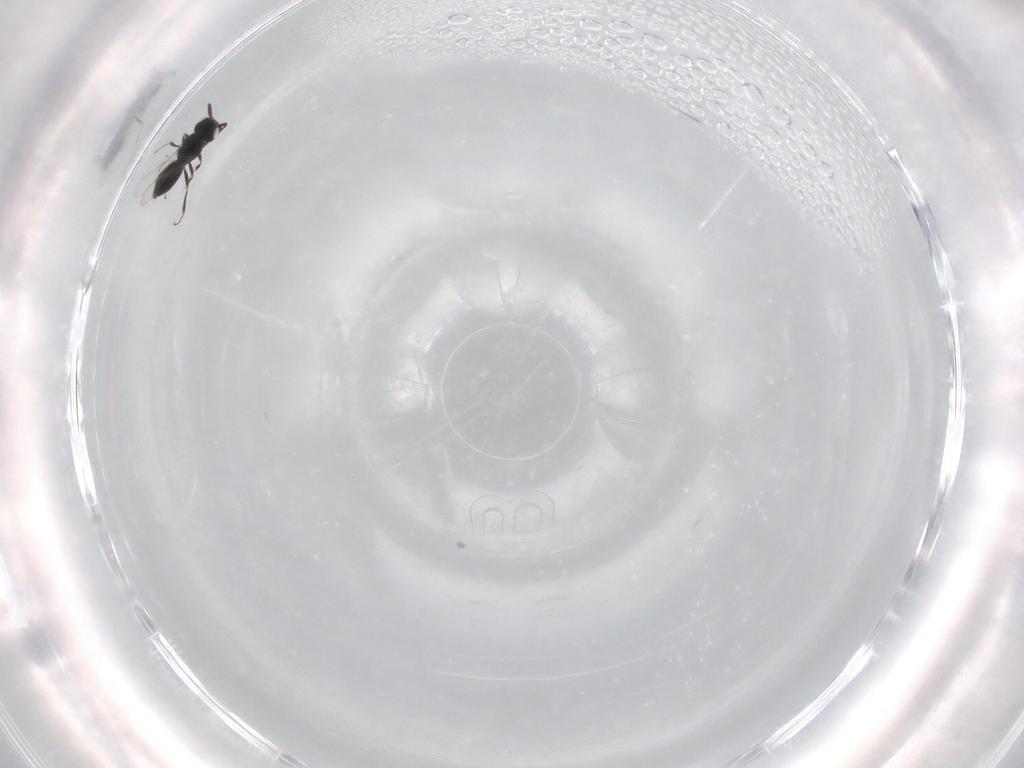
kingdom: Animalia
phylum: Arthropoda
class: Insecta
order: Hymenoptera
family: Scelionidae
